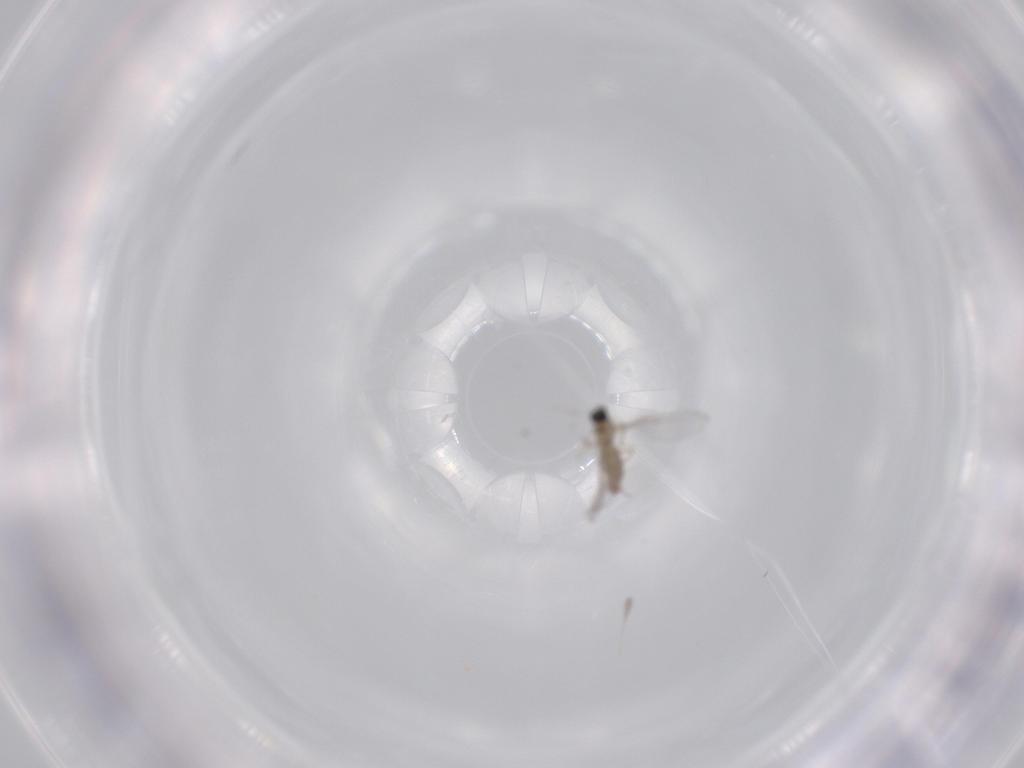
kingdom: Animalia
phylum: Arthropoda
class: Insecta
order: Diptera
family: Cecidomyiidae
